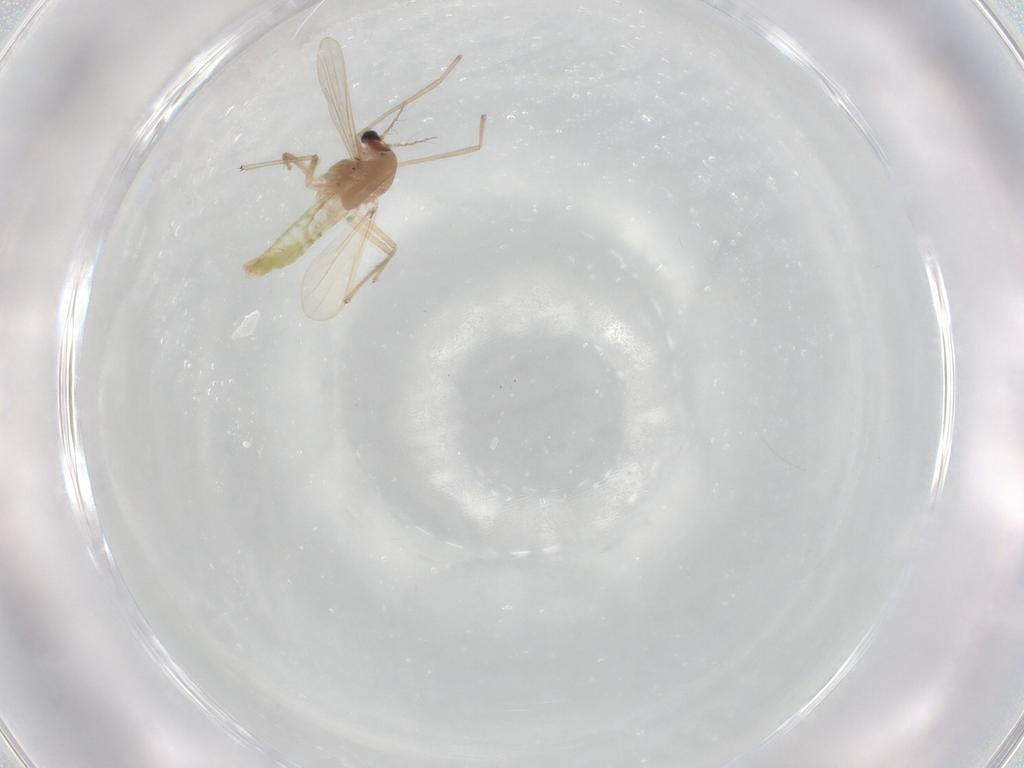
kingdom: Animalia
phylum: Arthropoda
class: Insecta
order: Diptera
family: Chironomidae
